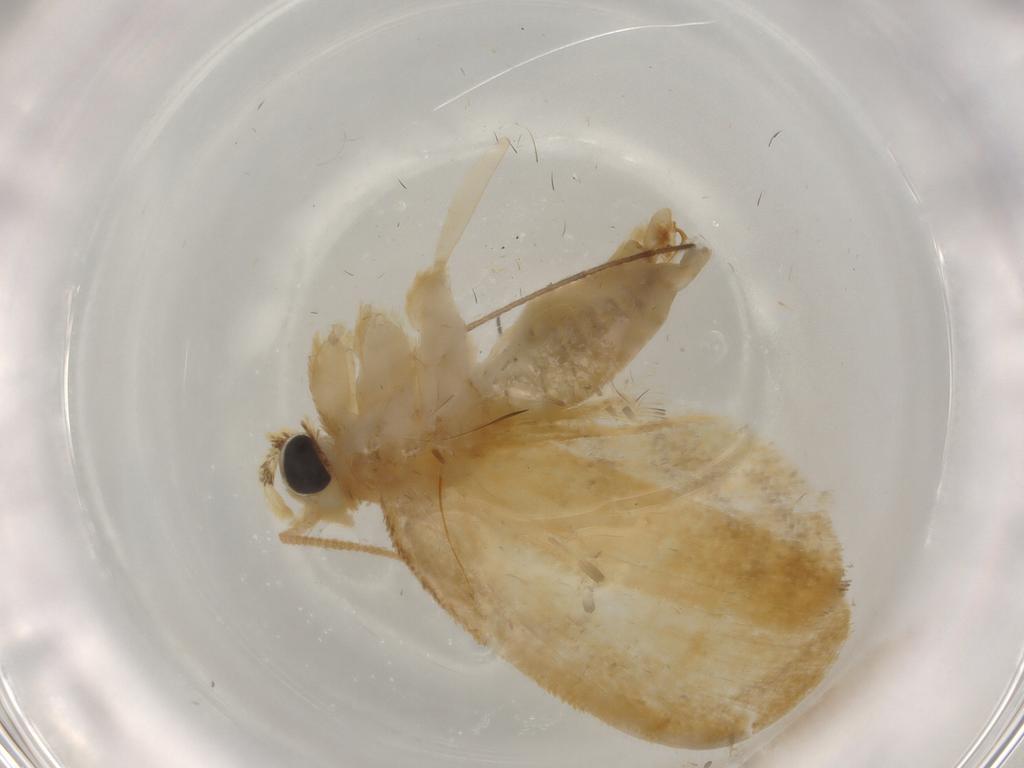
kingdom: Animalia
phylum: Arthropoda
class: Insecta
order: Lepidoptera
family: Psychidae
